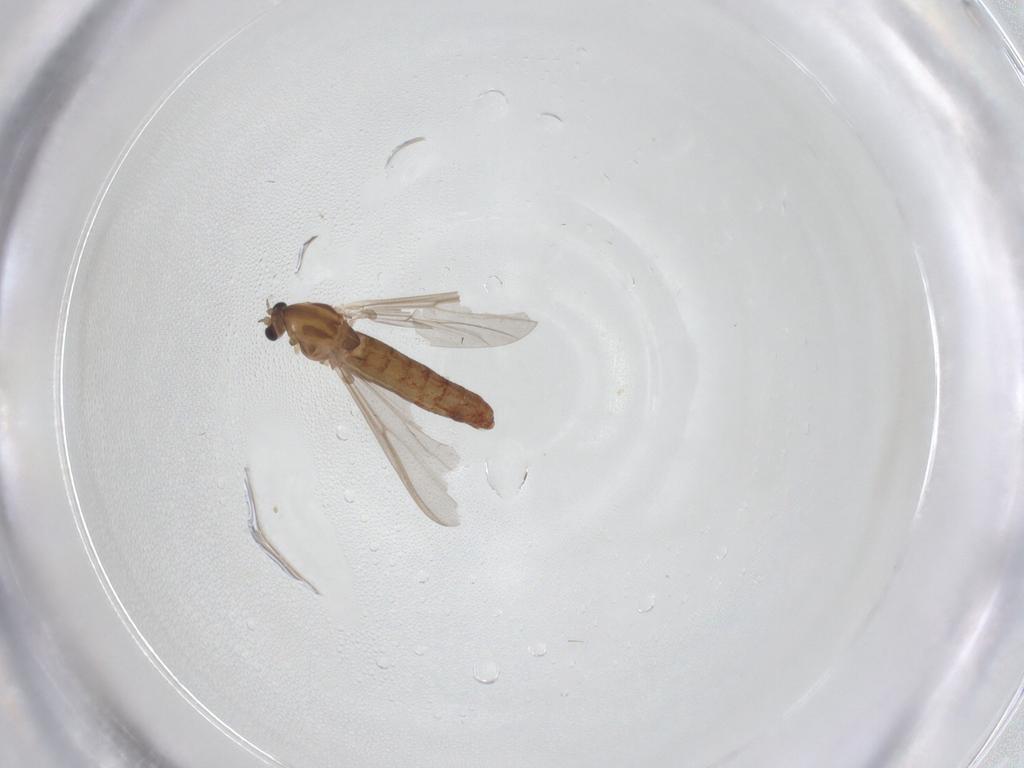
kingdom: Animalia
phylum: Arthropoda
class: Insecta
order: Diptera
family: Chironomidae
